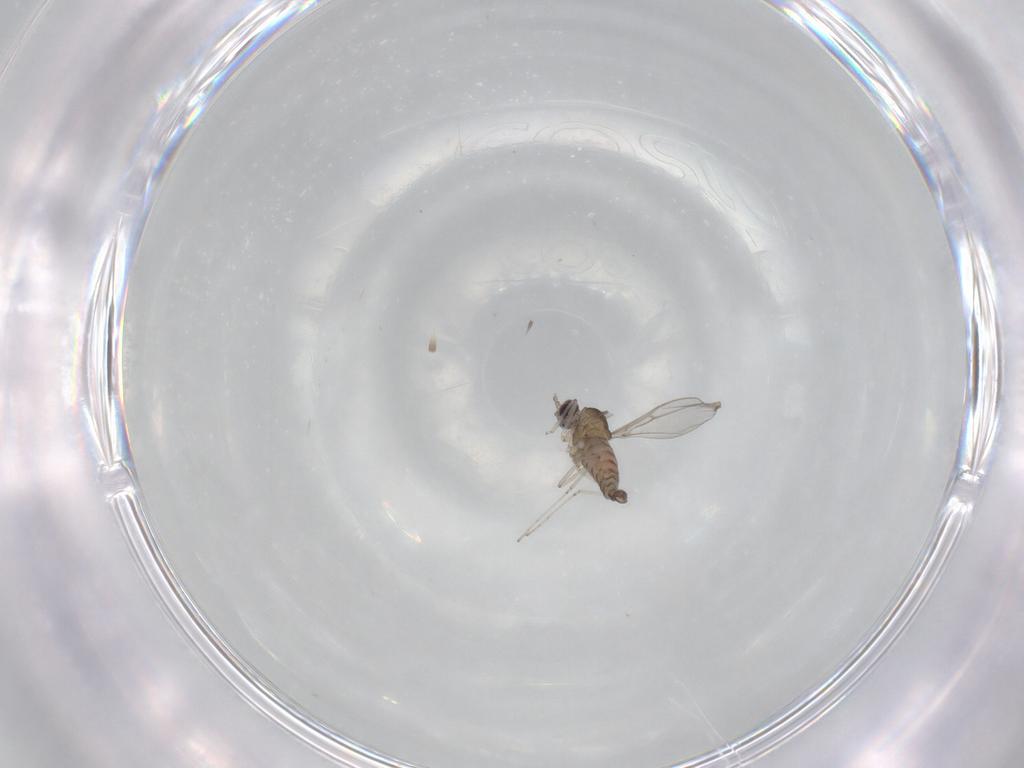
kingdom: Animalia
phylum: Arthropoda
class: Insecta
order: Diptera
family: Cecidomyiidae
